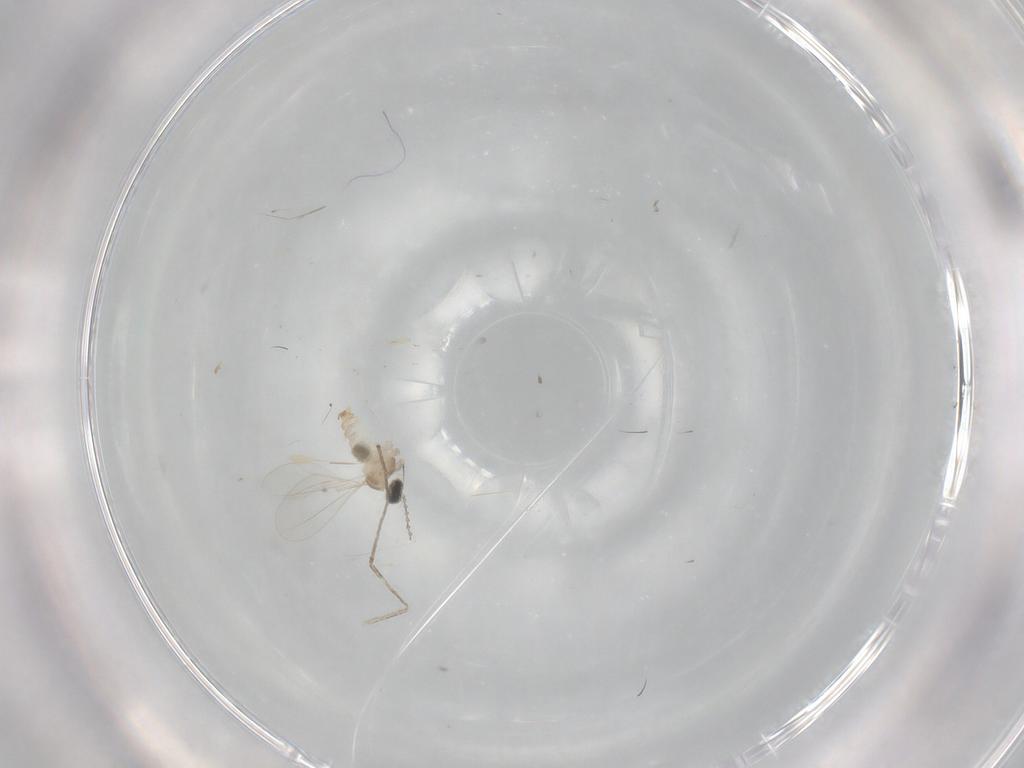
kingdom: Animalia
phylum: Arthropoda
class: Insecta
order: Diptera
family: Cecidomyiidae
